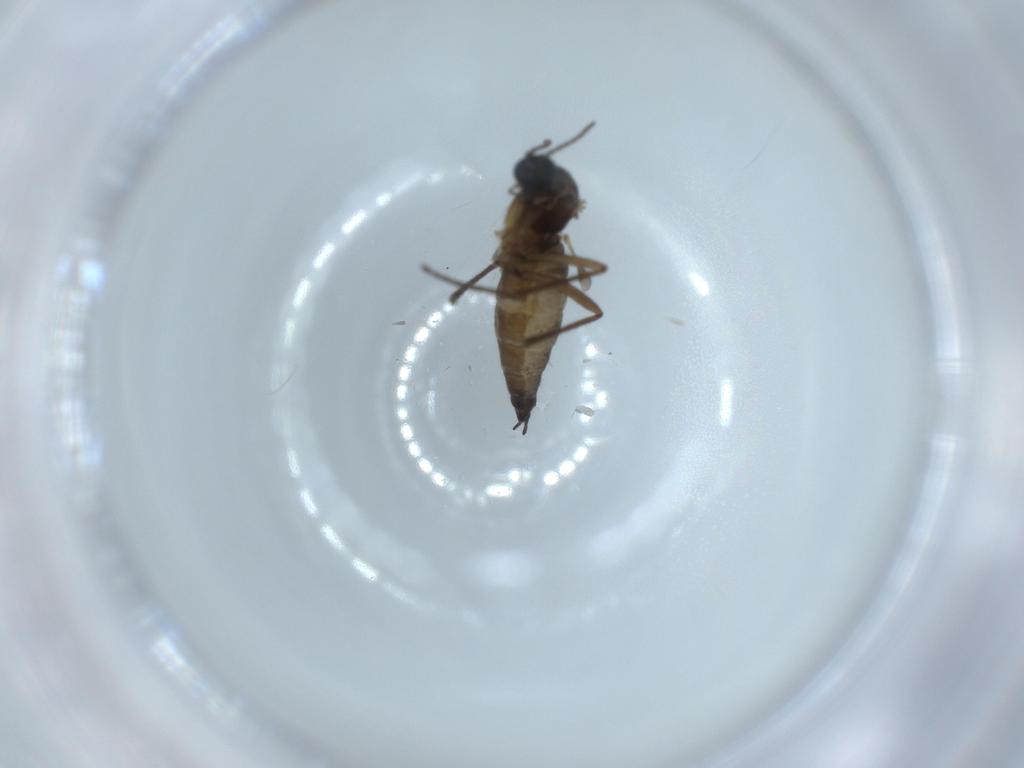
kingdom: Animalia
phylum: Arthropoda
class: Insecta
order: Diptera
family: Sciaridae
